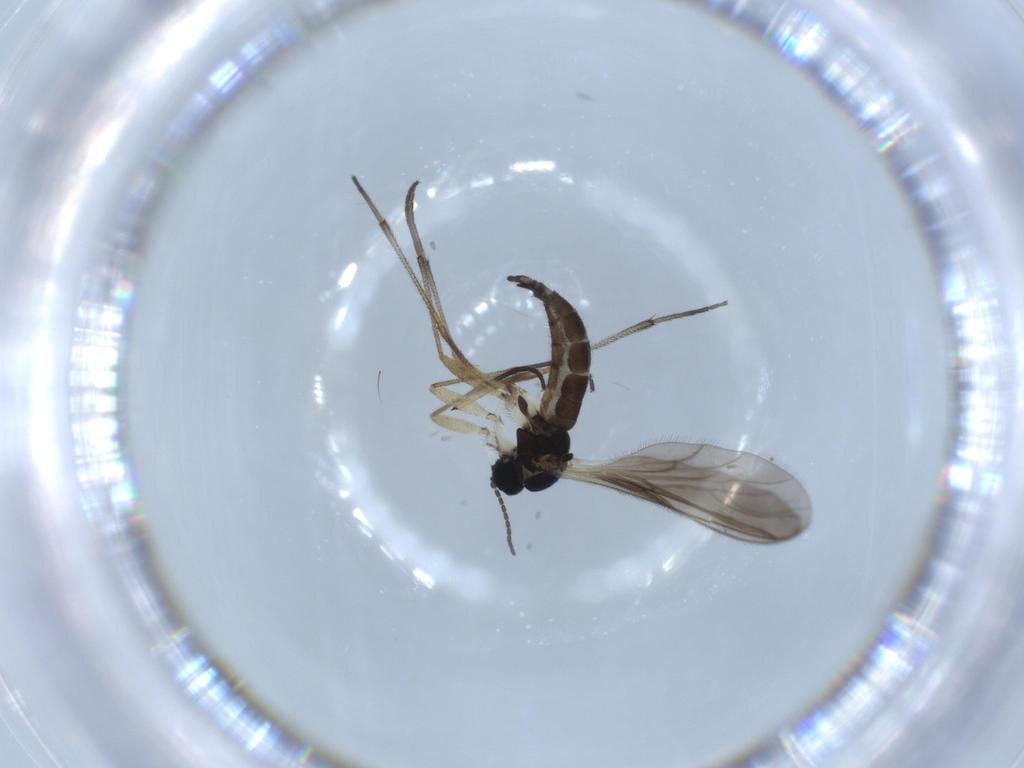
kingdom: Animalia
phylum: Arthropoda
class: Insecta
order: Diptera
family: Sciaridae
